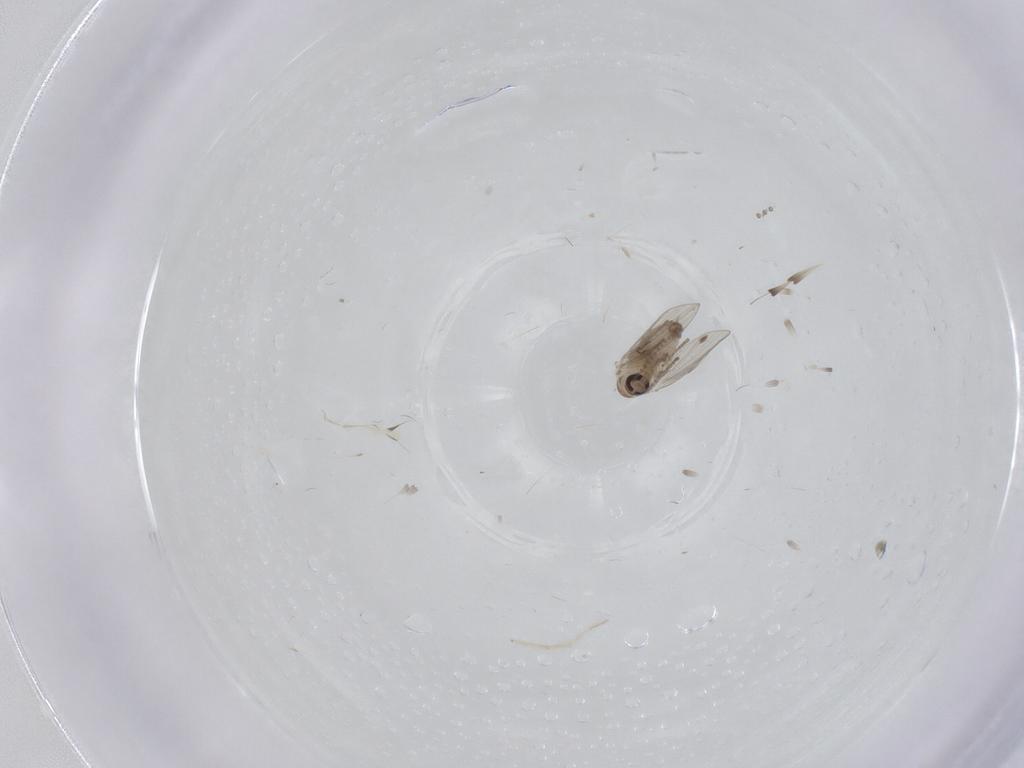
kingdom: Animalia
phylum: Arthropoda
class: Insecta
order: Diptera
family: Psychodidae
